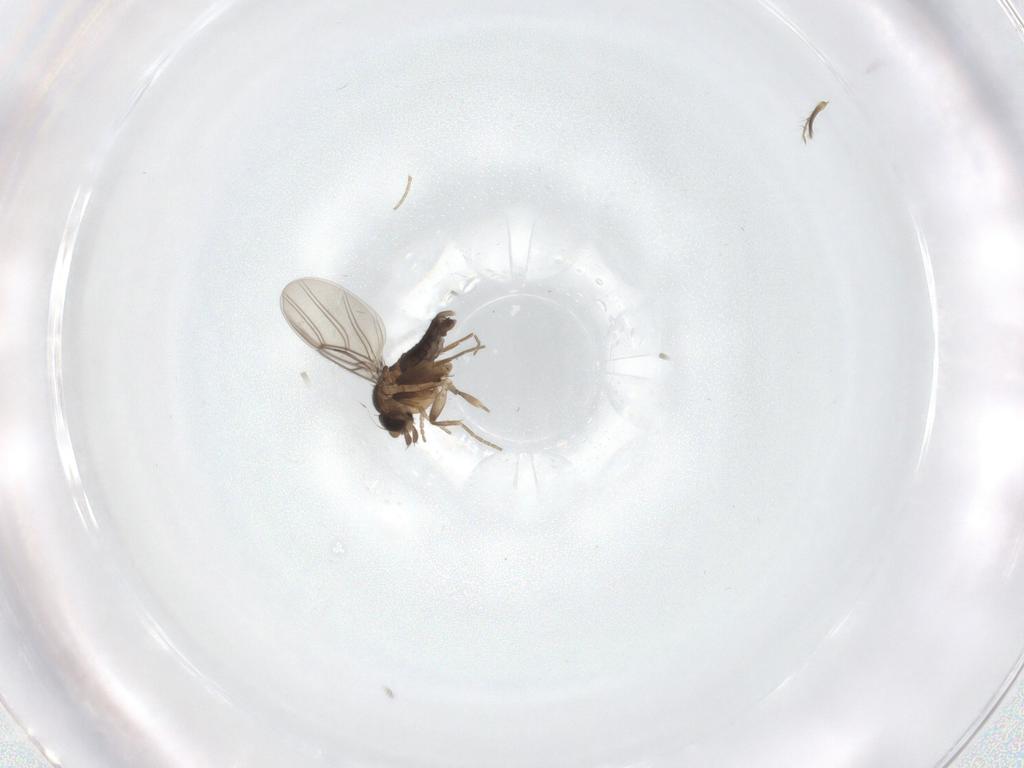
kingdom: Animalia
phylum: Arthropoda
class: Insecta
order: Diptera
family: Ceratopogonidae
